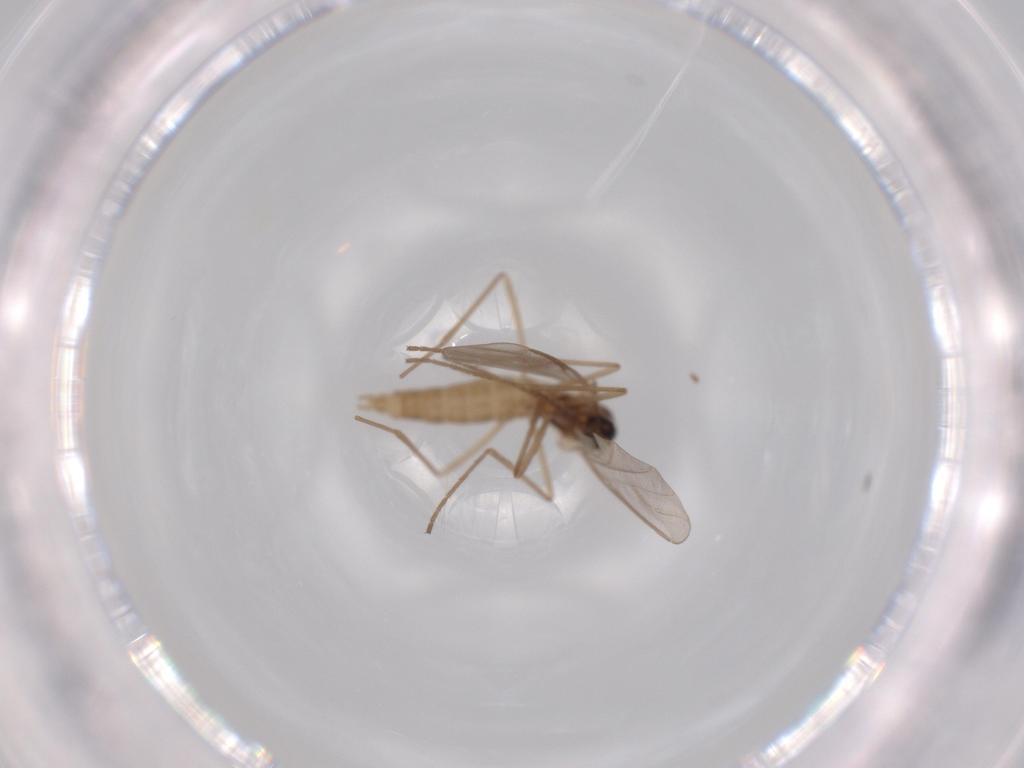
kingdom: Animalia
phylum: Arthropoda
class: Insecta
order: Diptera
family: Cecidomyiidae
